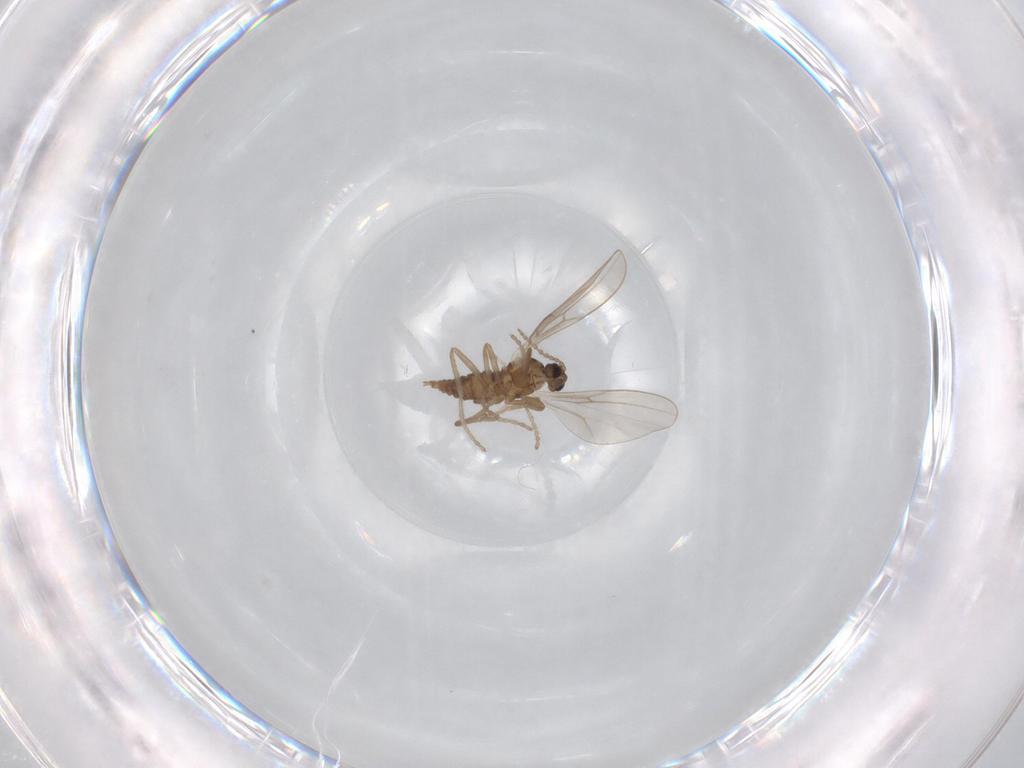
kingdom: Animalia
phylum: Arthropoda
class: Insecta
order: Diptera
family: Cecidomyiidae
